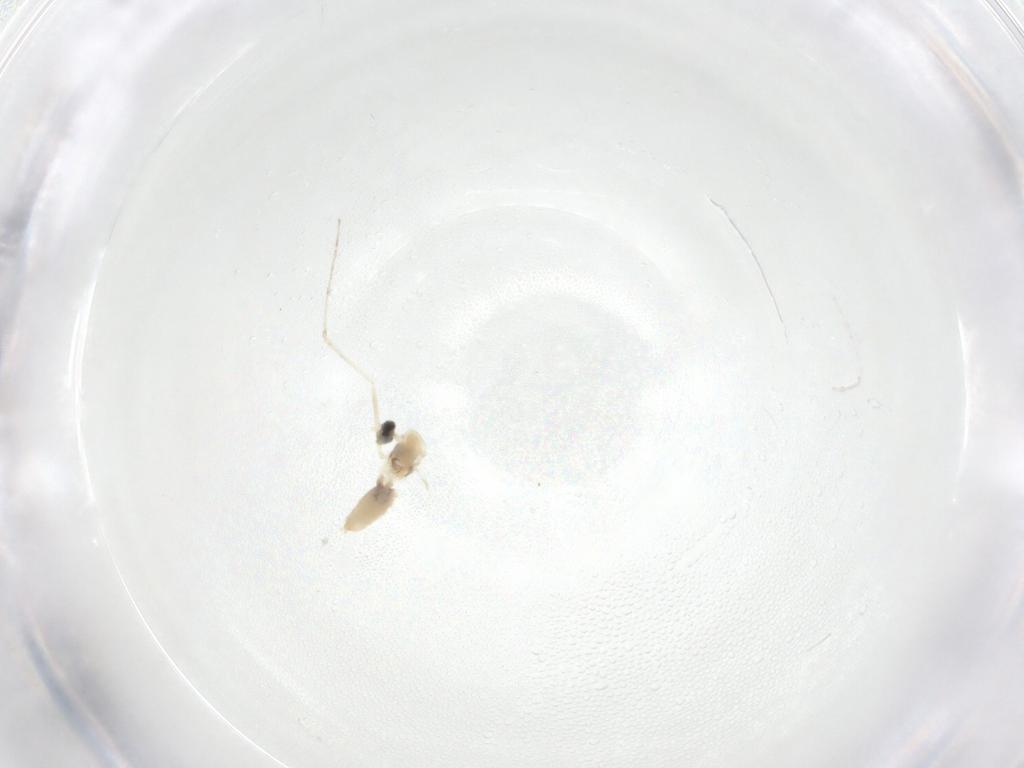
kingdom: Animalia
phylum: Arthropoda
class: Insecta
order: Diptera
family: Cecidomyiidae
